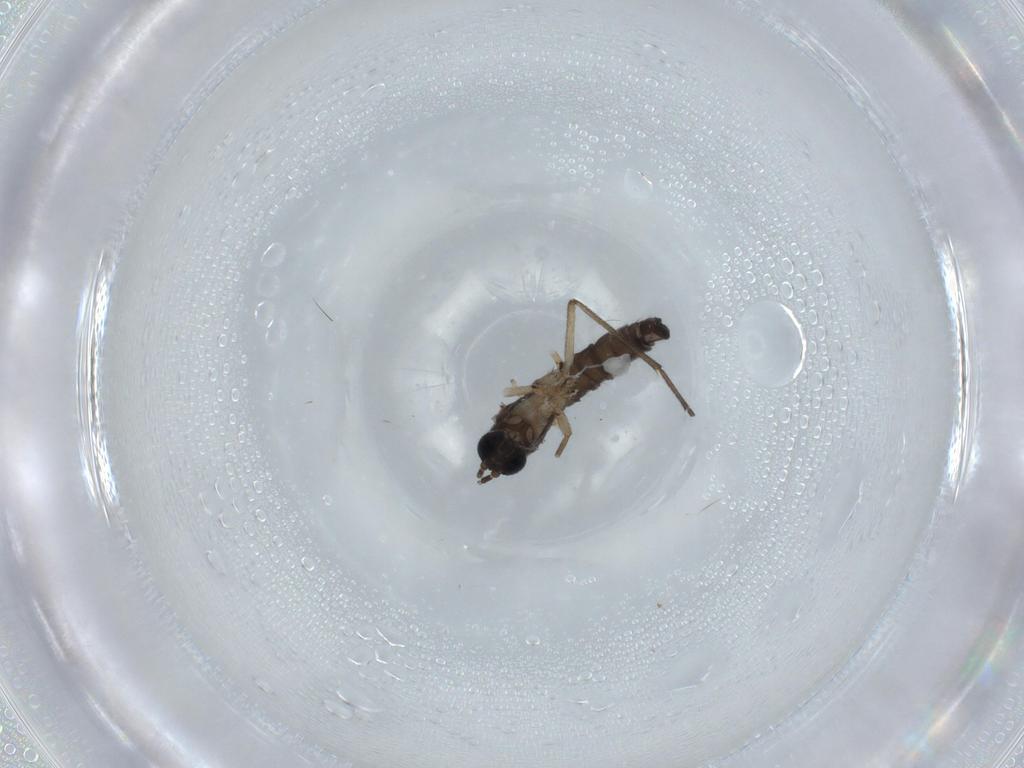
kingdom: Animalia
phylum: Arthropoda
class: Insecta
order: Diptera
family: Sciaridae
